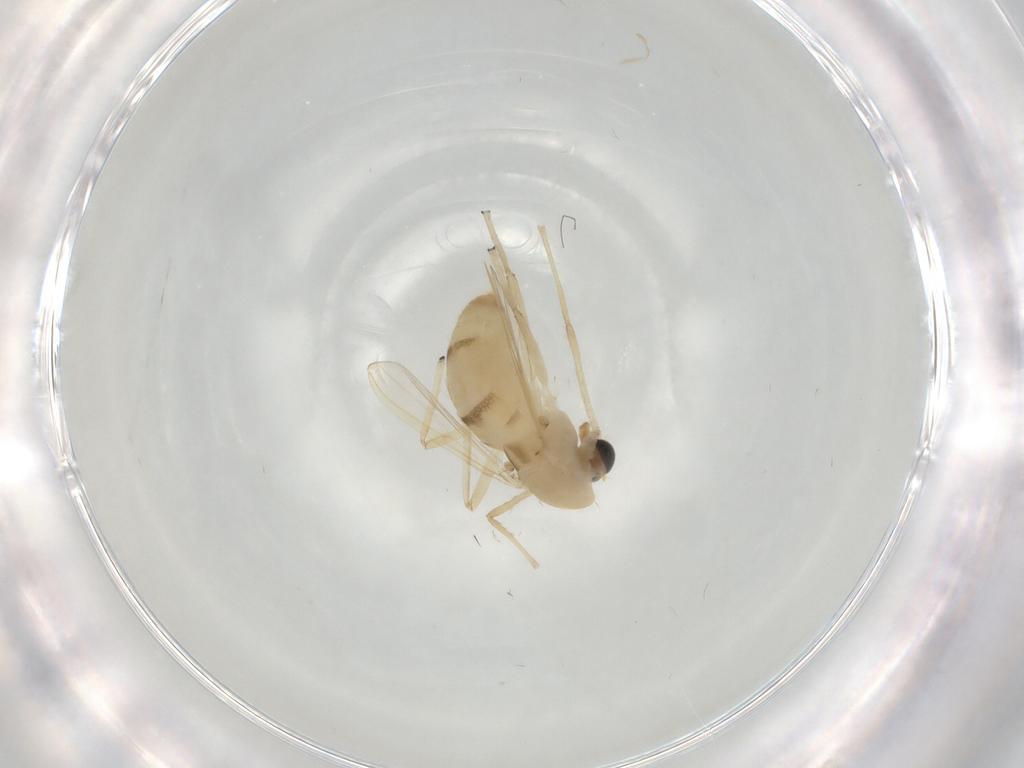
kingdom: Animalia
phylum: Arthropoda
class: Insecta
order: Diptera
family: Chironomidae
